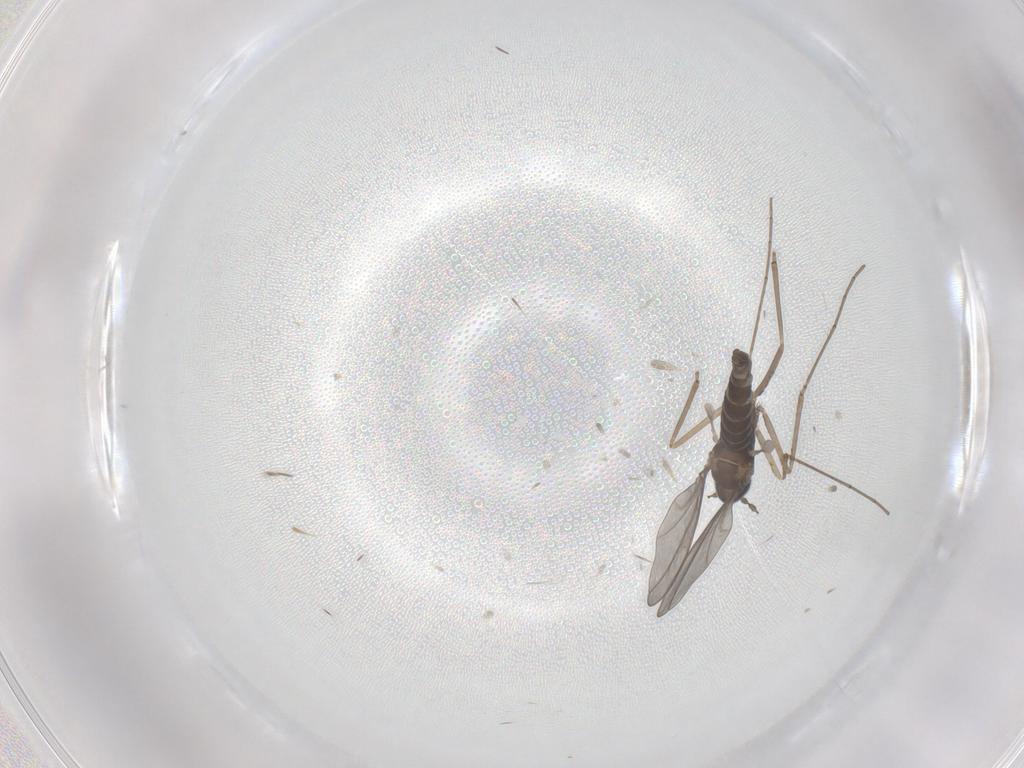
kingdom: Animalia
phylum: Arthropoda
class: Insecta
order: Diptera
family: Cecidomyiidae
